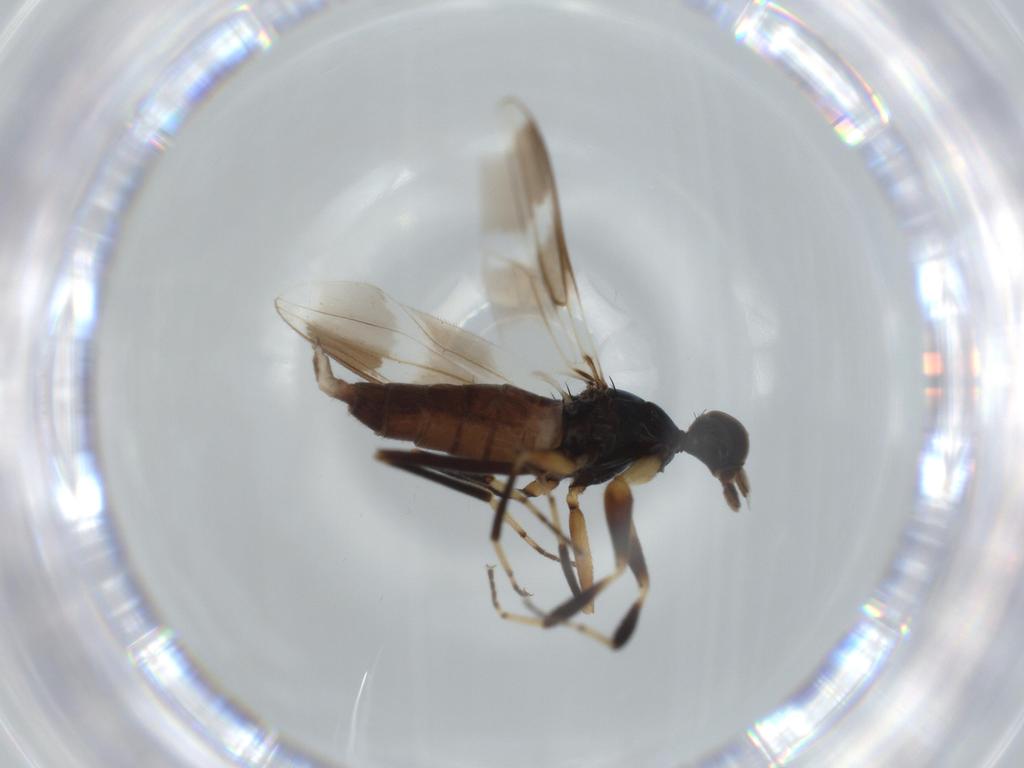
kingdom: Animalia
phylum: Arthropoda
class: Insecta
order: Diptera
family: Hybotidae
